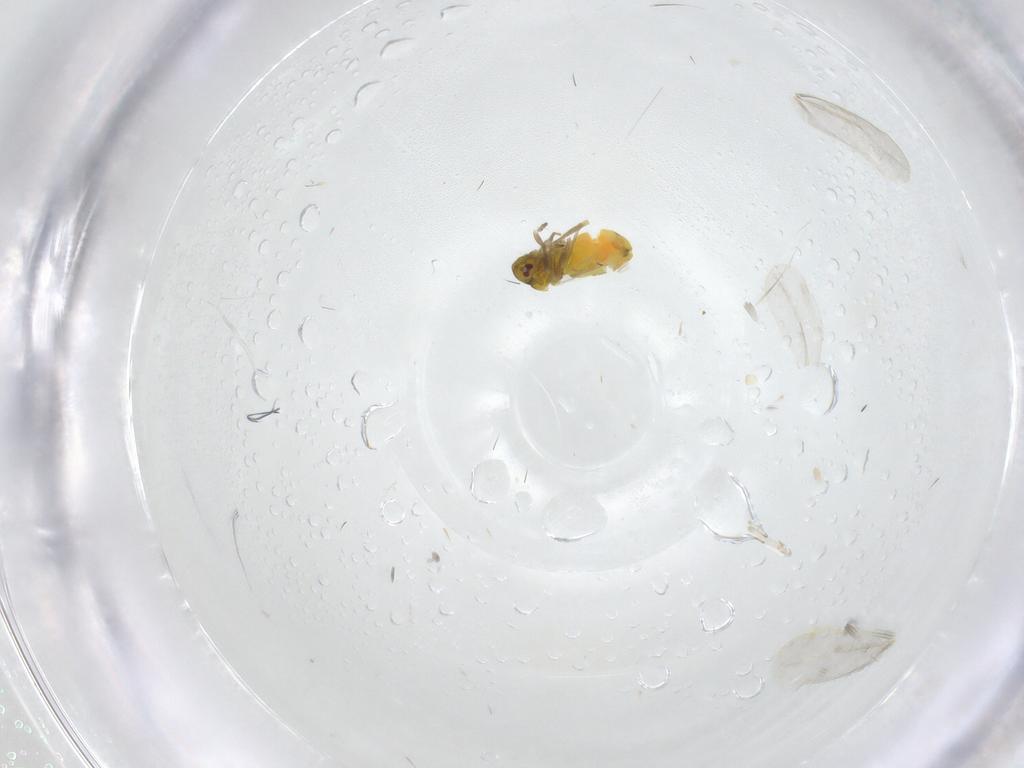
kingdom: Animalia
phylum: Arthropoda
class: Insecta
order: Hemiptera
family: Aleyrodidae
